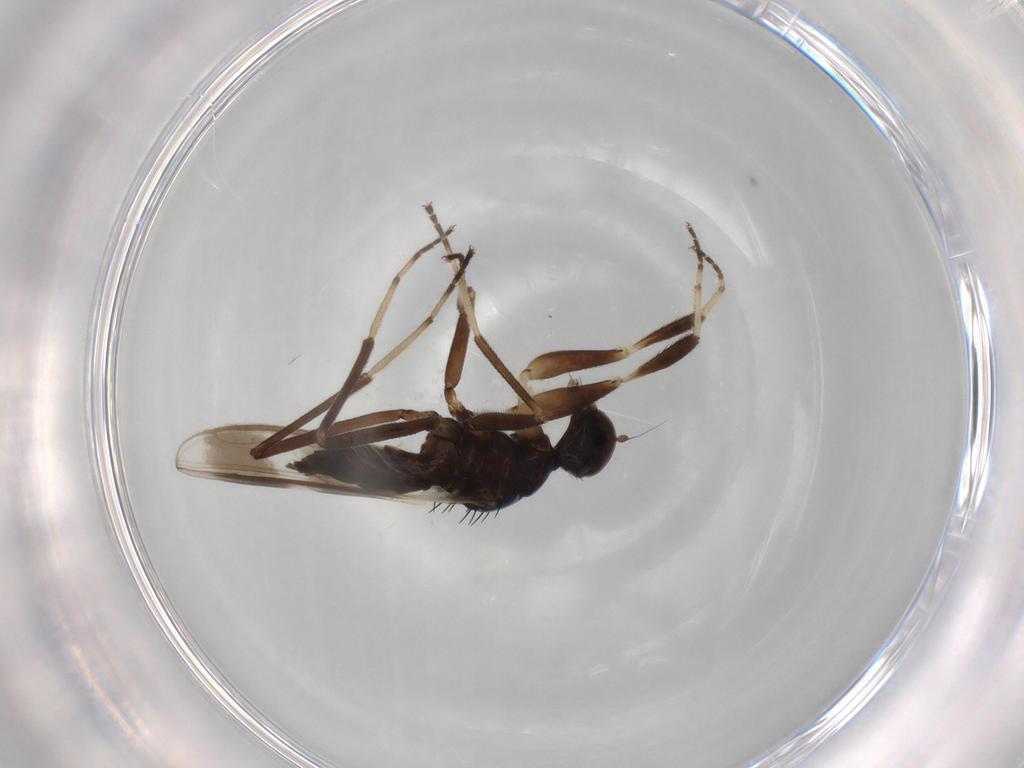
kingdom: Animalia
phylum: Arthropoda
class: Insecta
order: Diptera
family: Hybotidae
